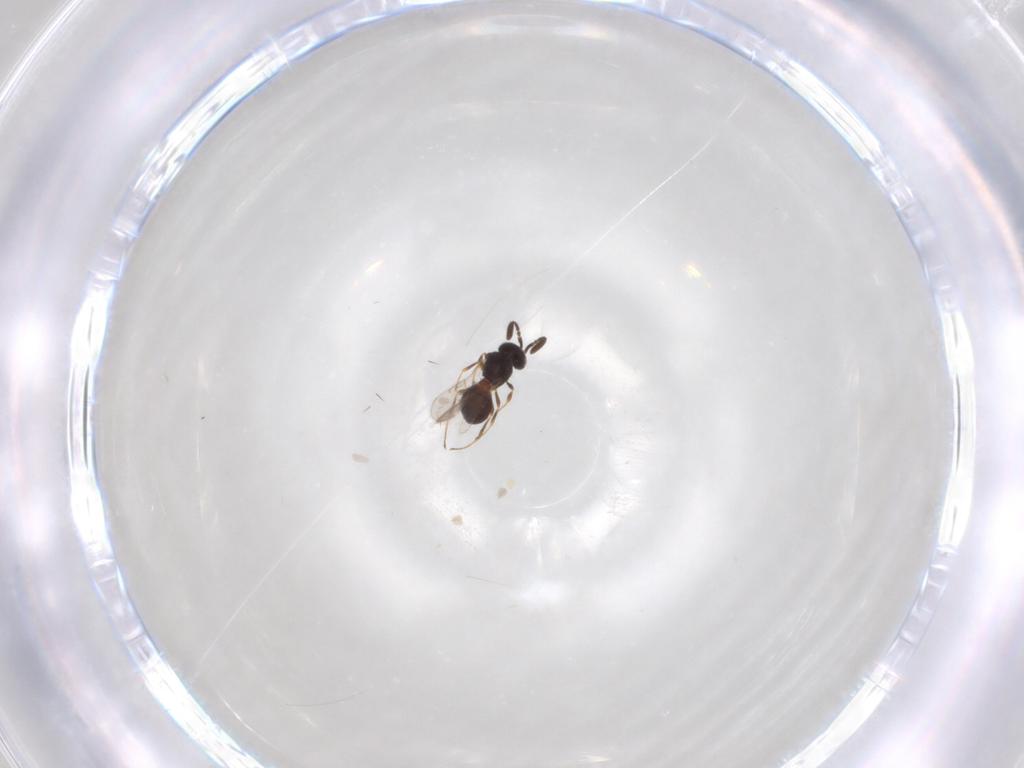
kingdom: Animalia
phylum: Arthropoda
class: Insecta
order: Hymenoptera
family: Scelionidae
